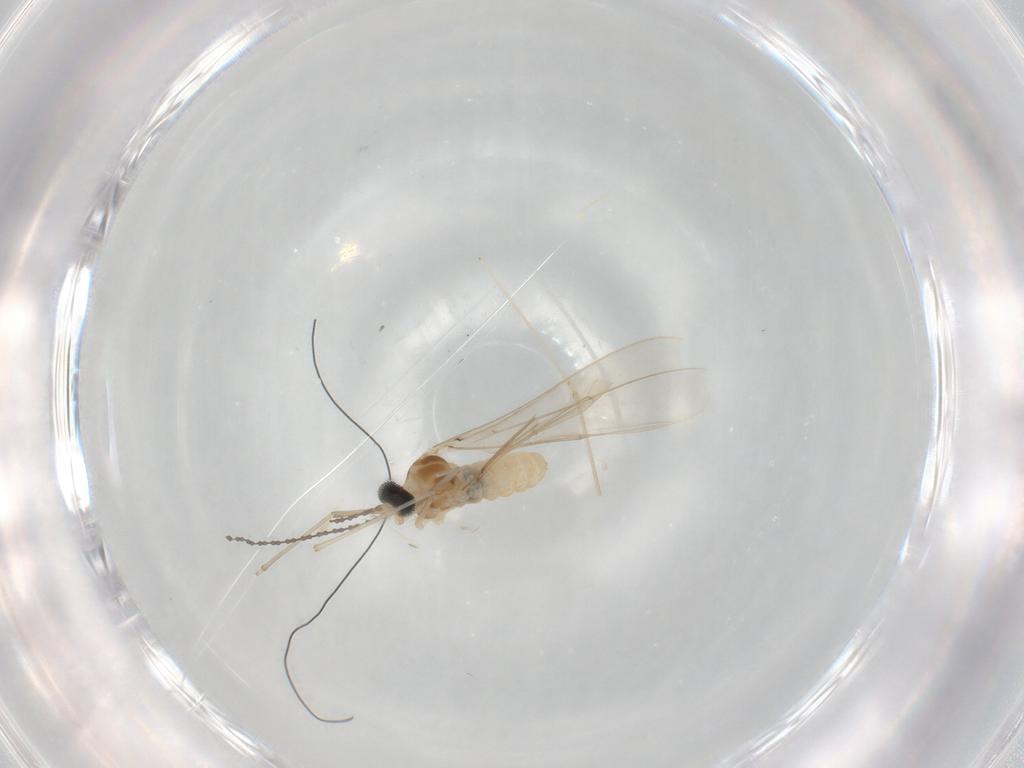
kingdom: Animalia
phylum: Arthropoda
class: Insecta
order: Diptera
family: Cecidomyiidae
